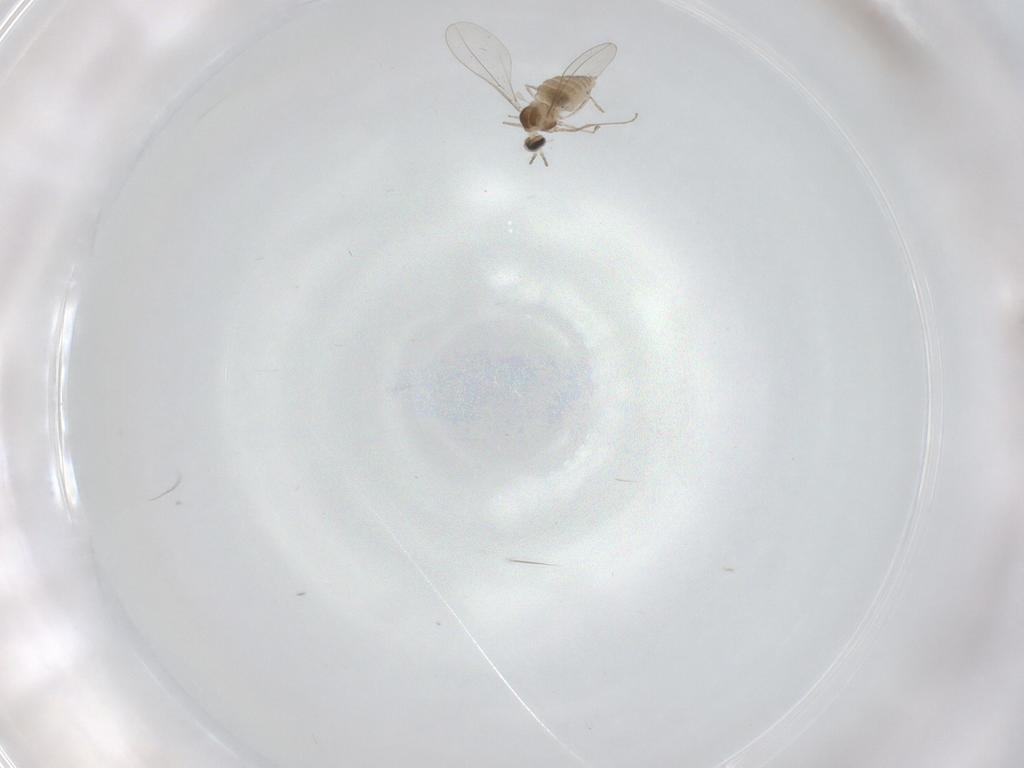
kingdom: Animalia
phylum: Arthropoda
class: Insecta
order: Diptera
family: Cecidomyiidae
